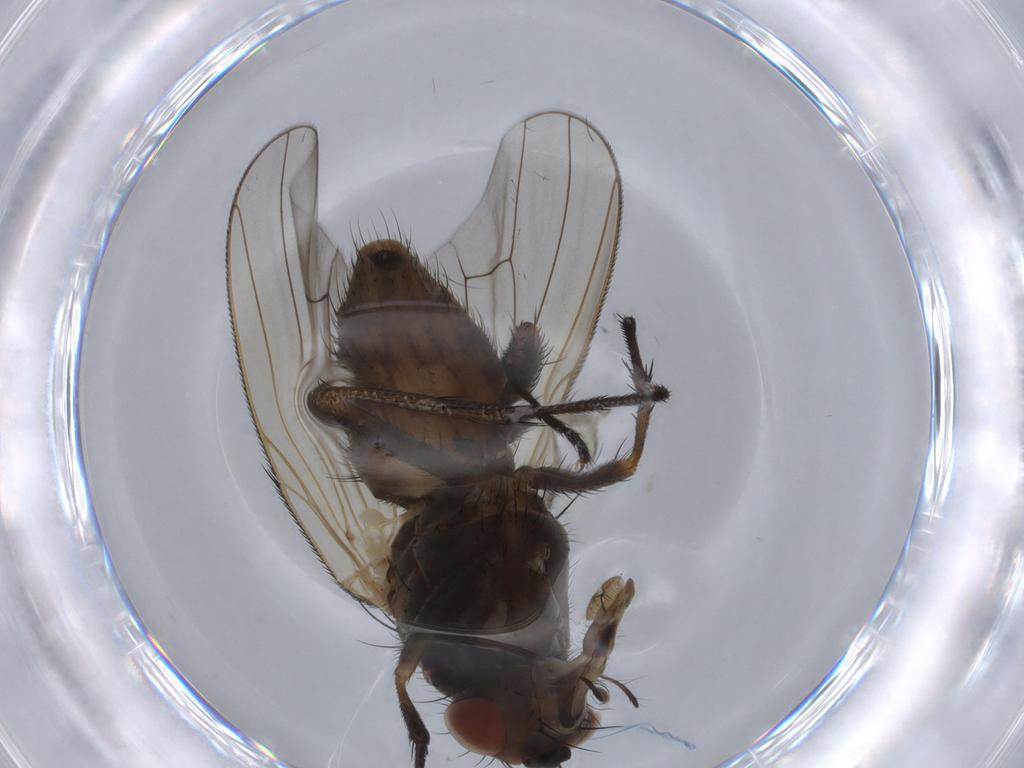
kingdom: Animalia
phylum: Arthropoda
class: Insecta
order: Diptera
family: Anthomyiidae
